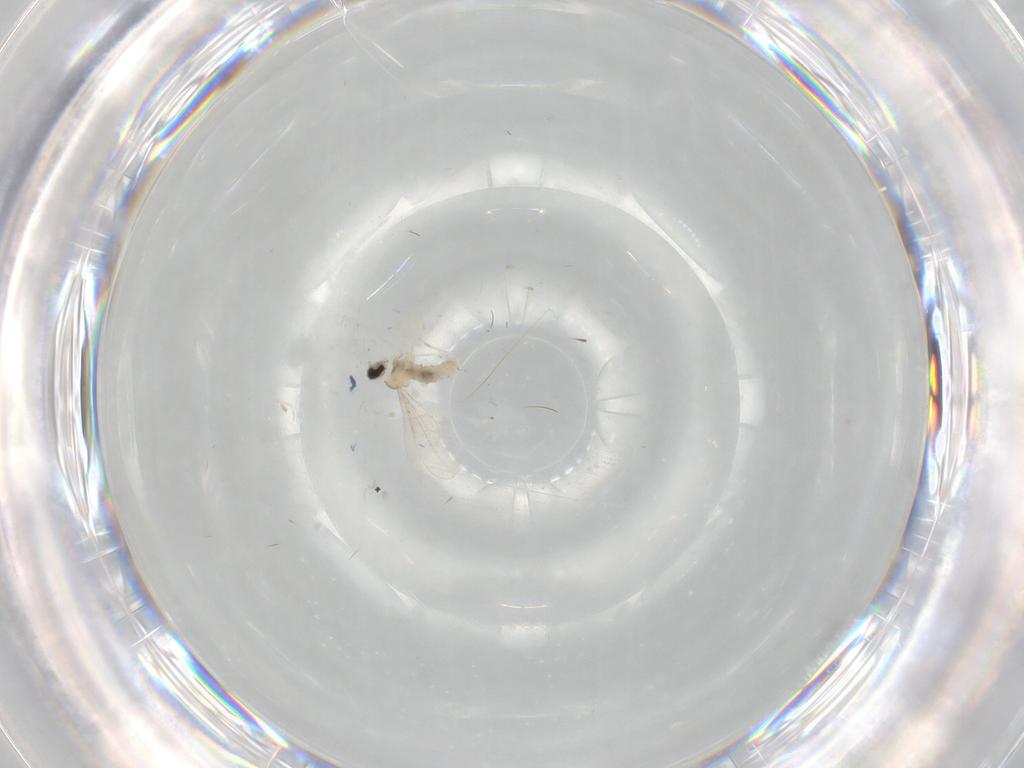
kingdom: Animalia
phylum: Arthropoda
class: Insecta
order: Diptera
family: Cecidomyiidae
